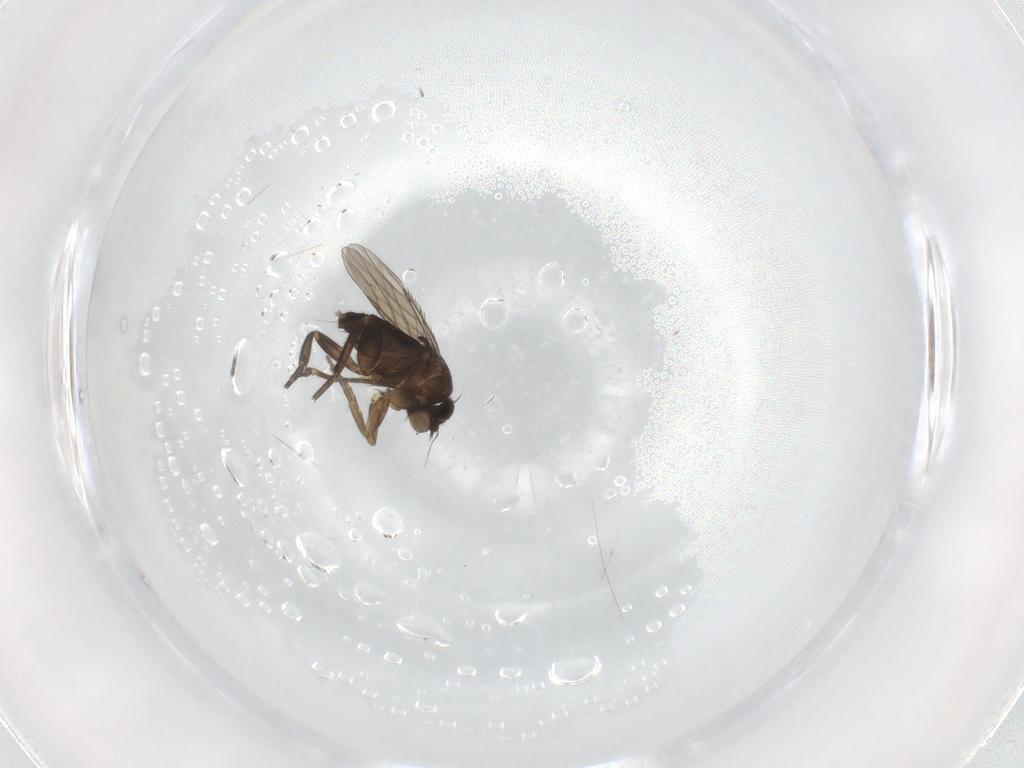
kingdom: Animalia
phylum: Arthropoda
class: Insecta
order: Diptera
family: Phoridae
